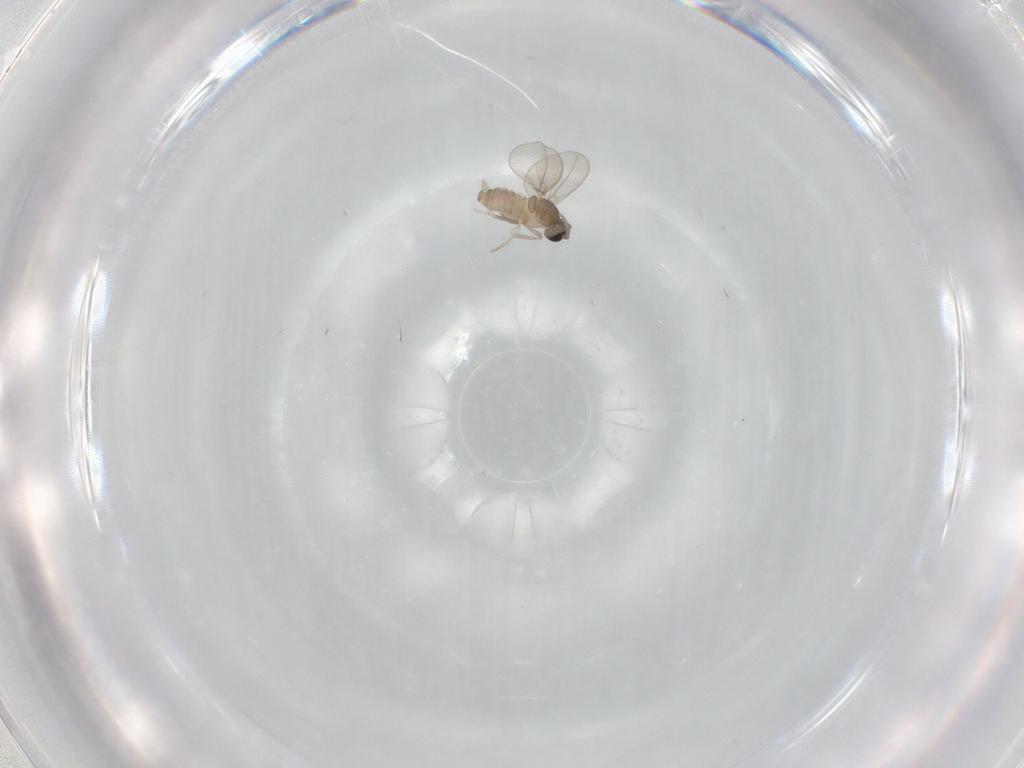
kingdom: Animalia
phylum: Arthropoda
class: Insecta
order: Diptera
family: Cecidomyiidae
